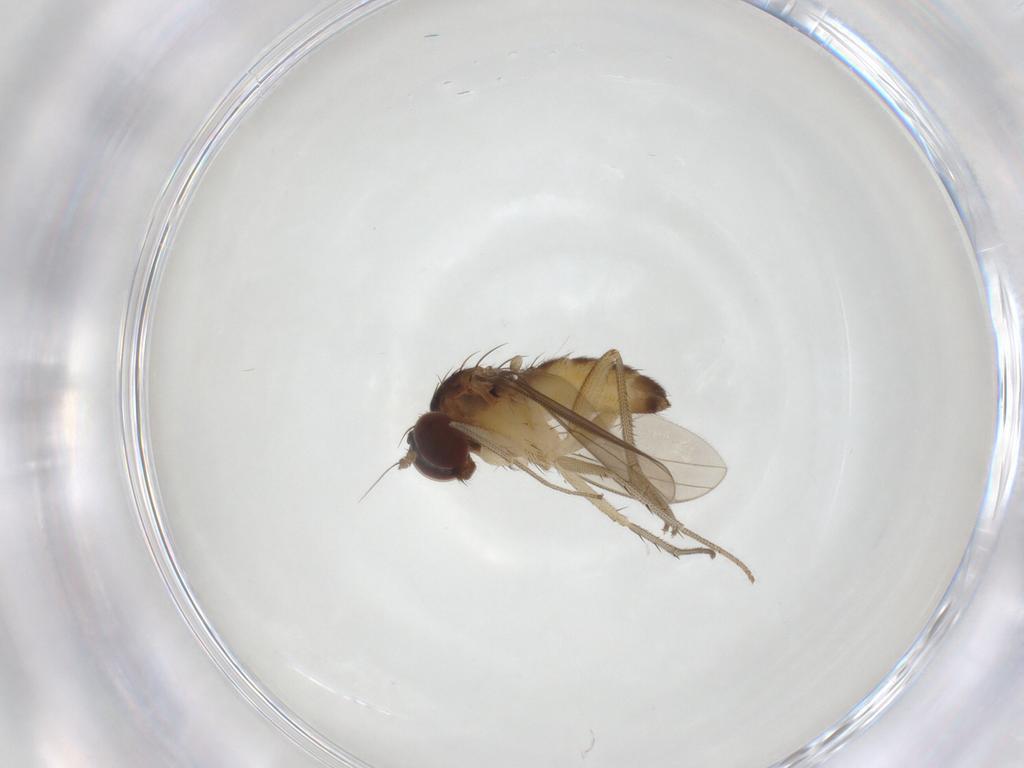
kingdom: Animalia
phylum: Arthropoda
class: Insecta
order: Diptera
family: Dolichopodidae
